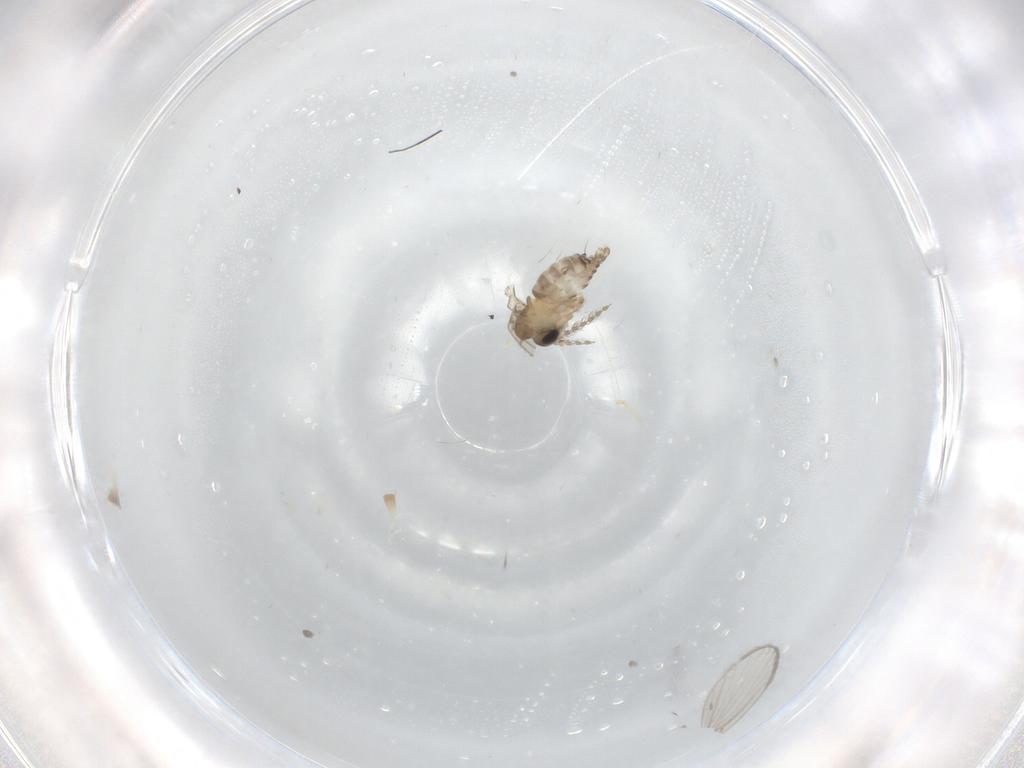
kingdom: Animalia
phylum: Arthropoda
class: Insecta
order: Diptera
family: Psychodidae
